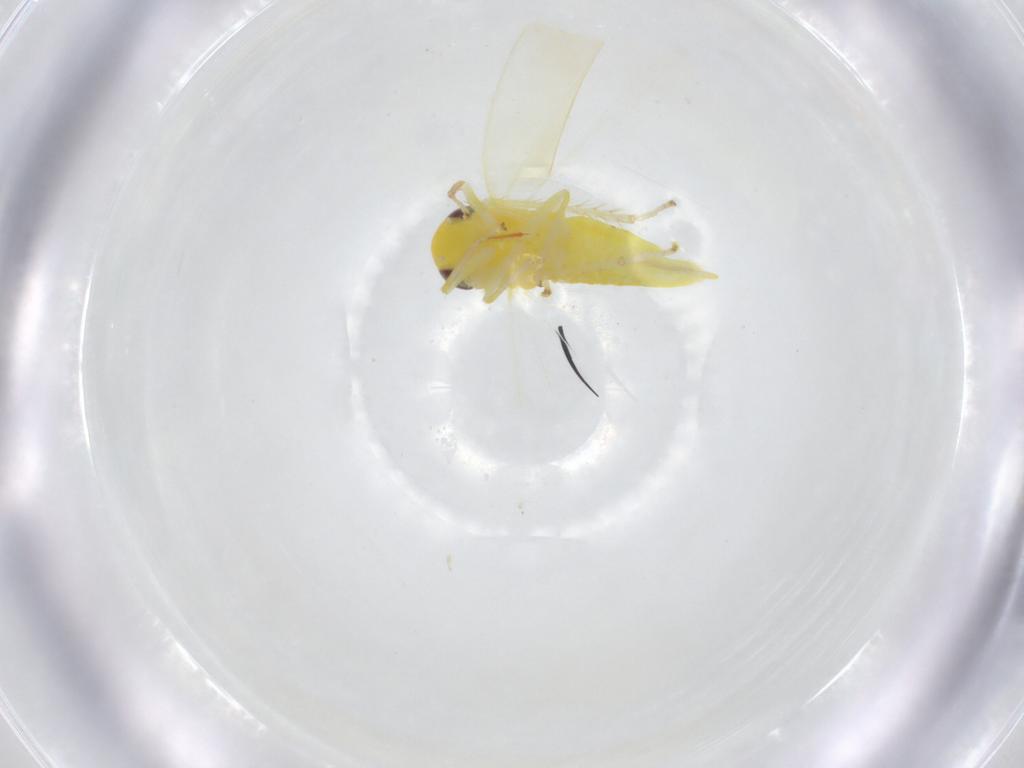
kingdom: Animalia
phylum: Arthropoda
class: Insecta
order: Hemiptera
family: Cicadellidae
